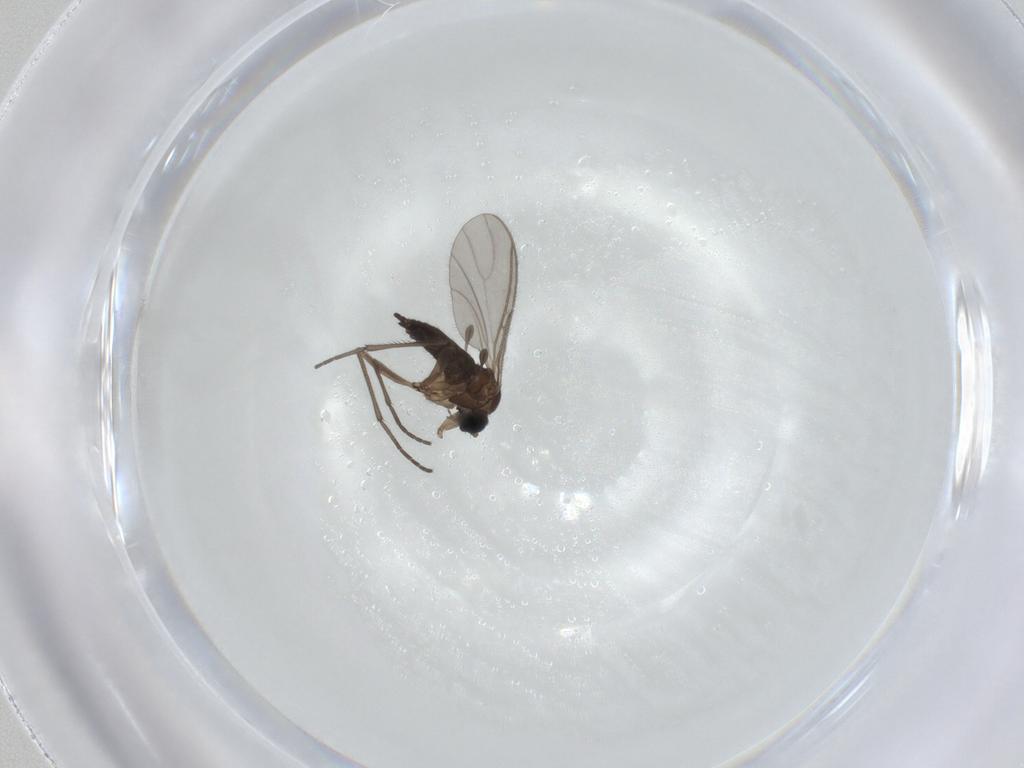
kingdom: Animalia
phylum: Arthropoda
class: Insecta
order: Diptera
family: Sciaridae
